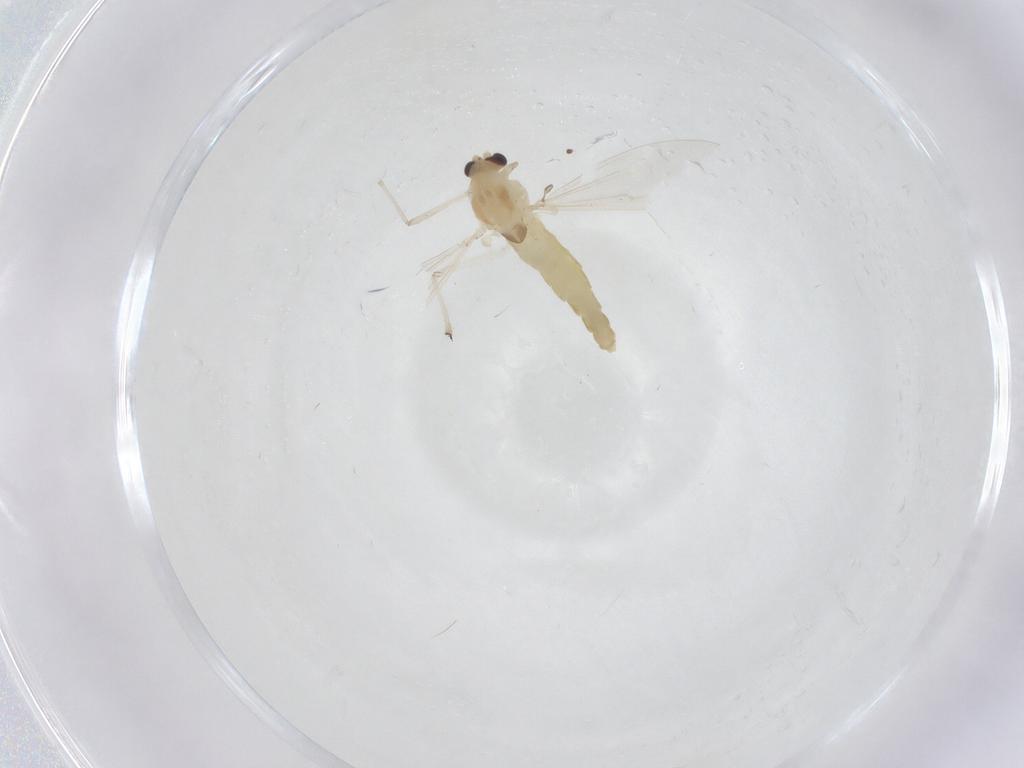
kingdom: Animalia
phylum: Arthropoda
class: Insecta
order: Diptera
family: Chironomidae
